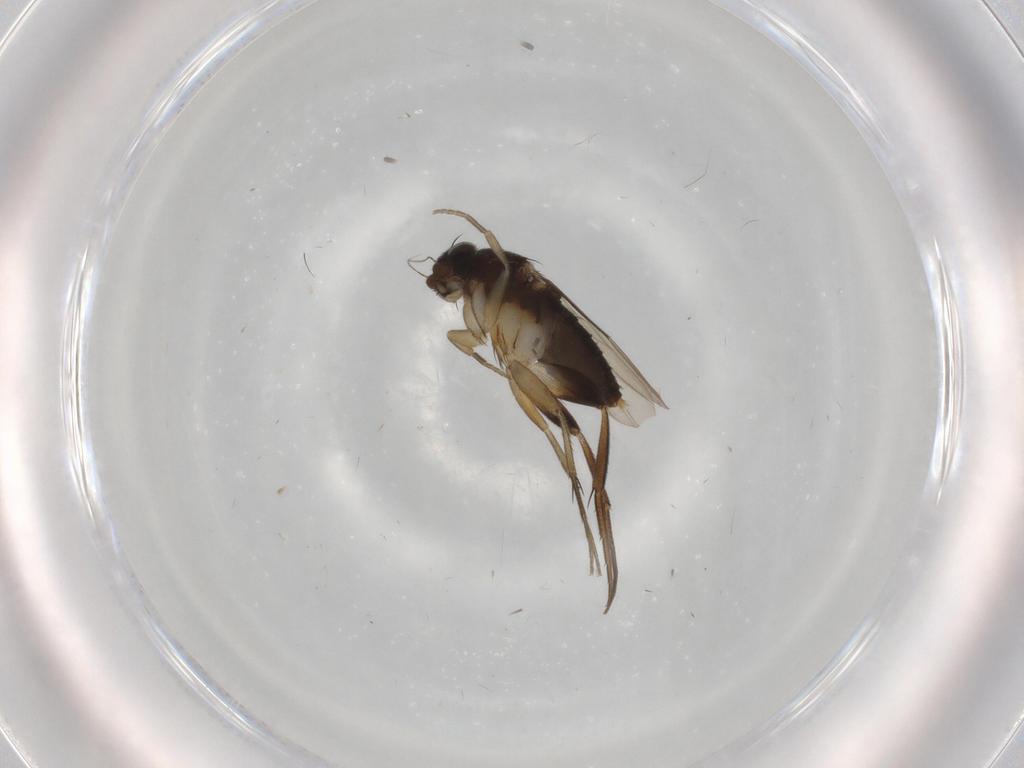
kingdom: Animalia
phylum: Arthropoda
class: Insecta
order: Diptera
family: Phoridae
